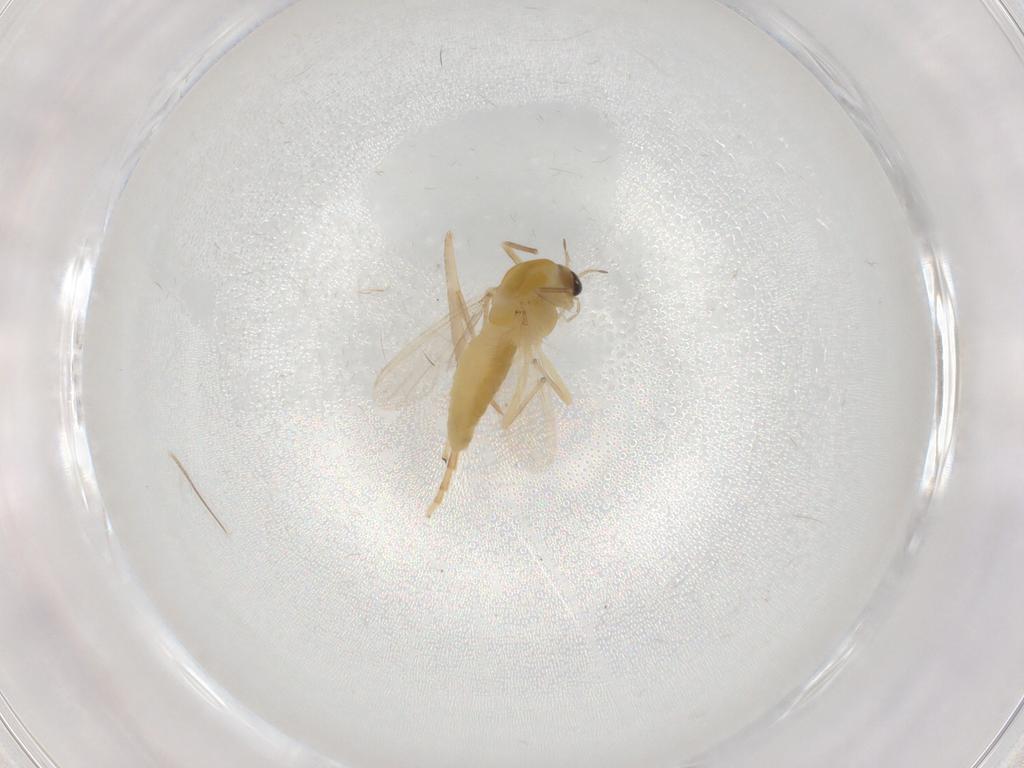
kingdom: Animalia
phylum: Arthropoda
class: Insecta
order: Diptera
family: Chironomidae
